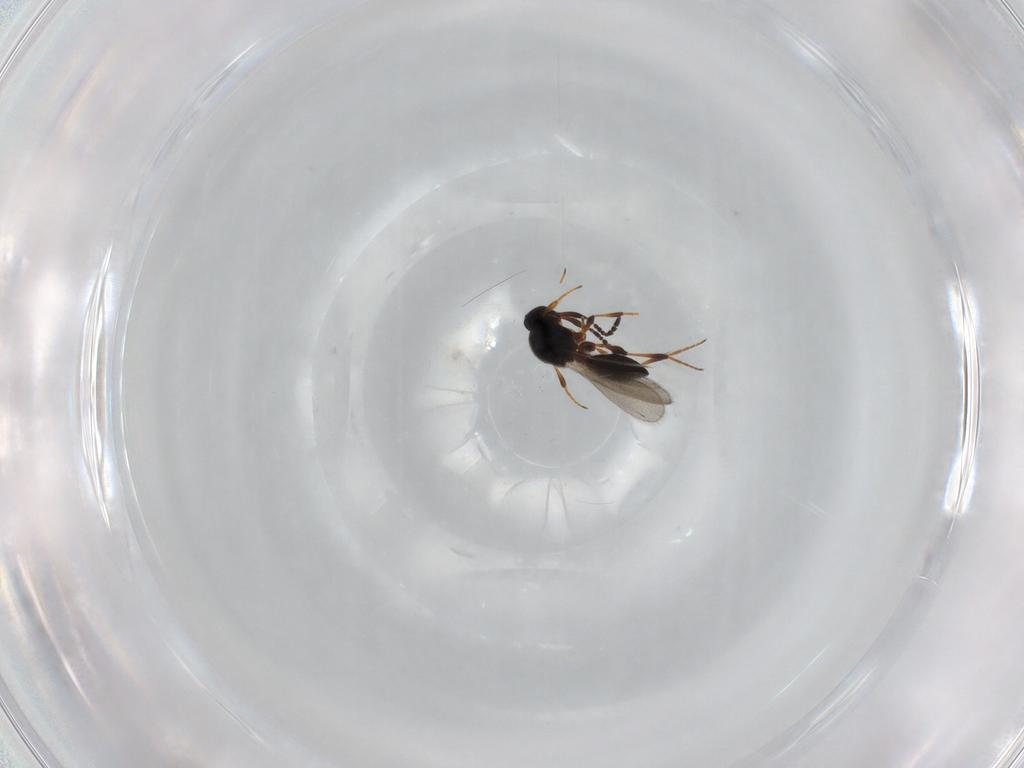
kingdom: Animalia
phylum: Arthropoda
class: Insecta
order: Hymenoptera
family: Platygastridae
